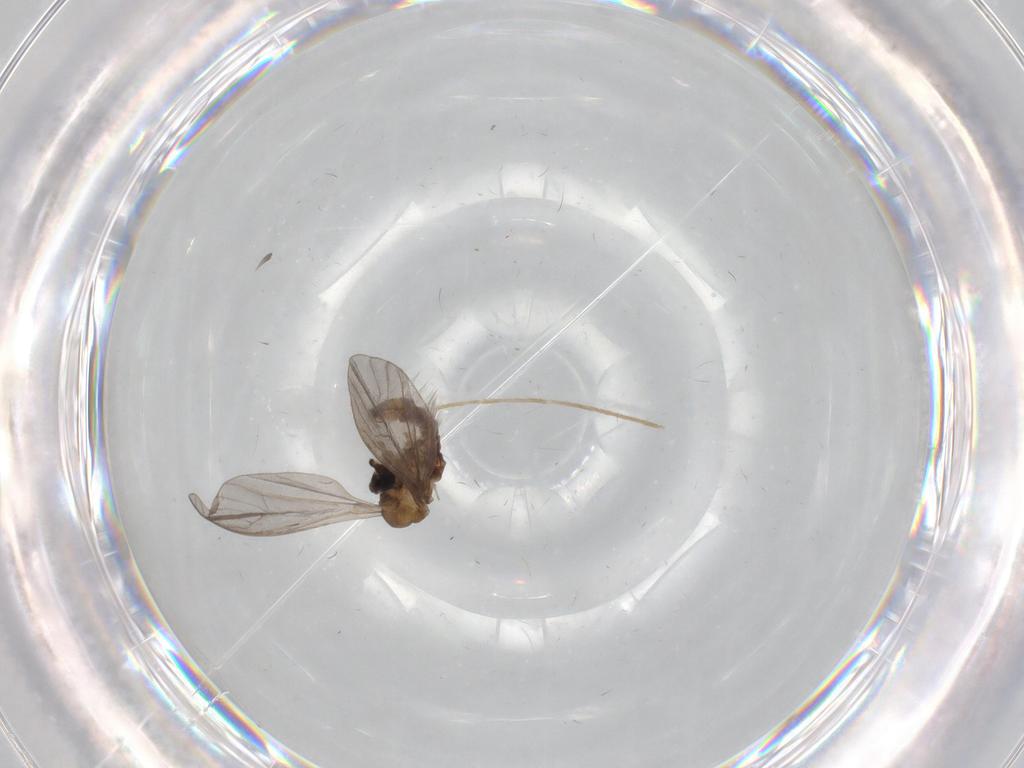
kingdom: Animalia
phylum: Arthropoda
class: Insecta
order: Diptera
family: Limoniidae
